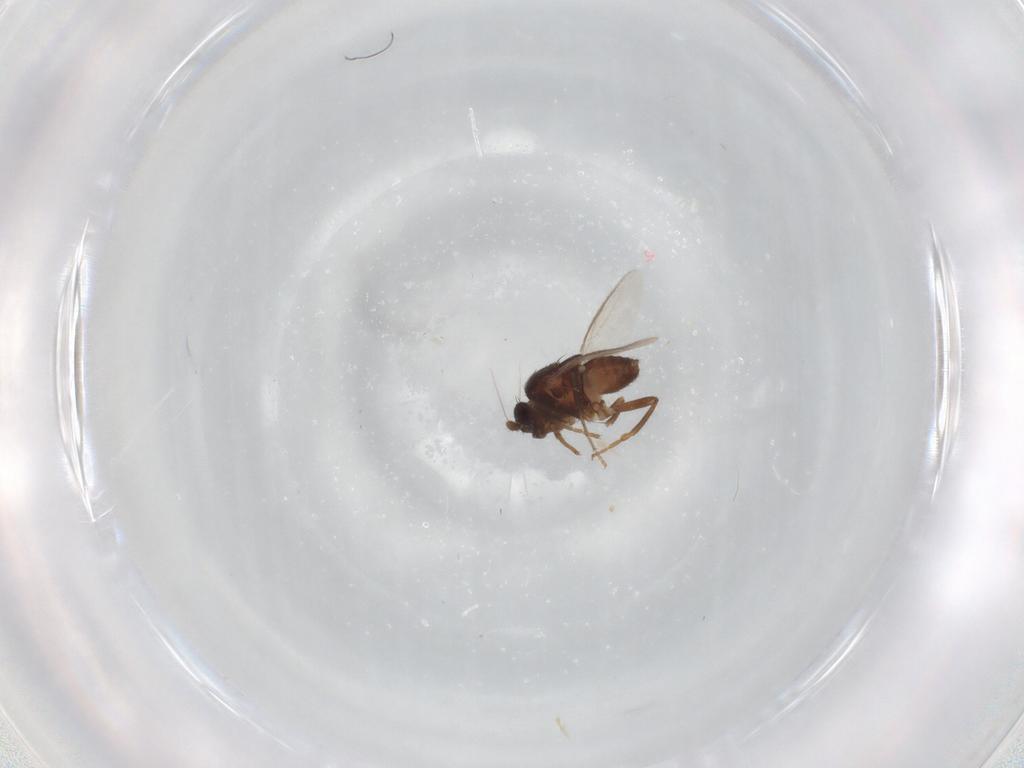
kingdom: Animalia
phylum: Arthropoda
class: Insecta
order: Diptera
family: Sphaeroceridae
